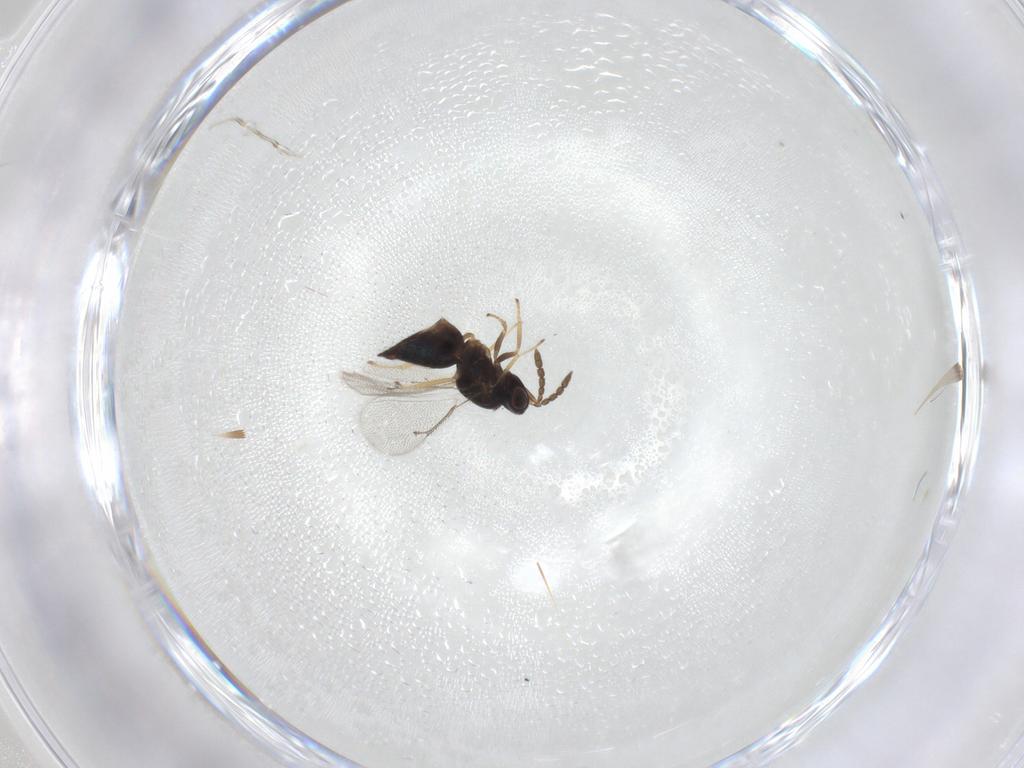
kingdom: Animalia
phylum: Arthropoda
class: Insecta
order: Hymenoptera
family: Eulophidae
